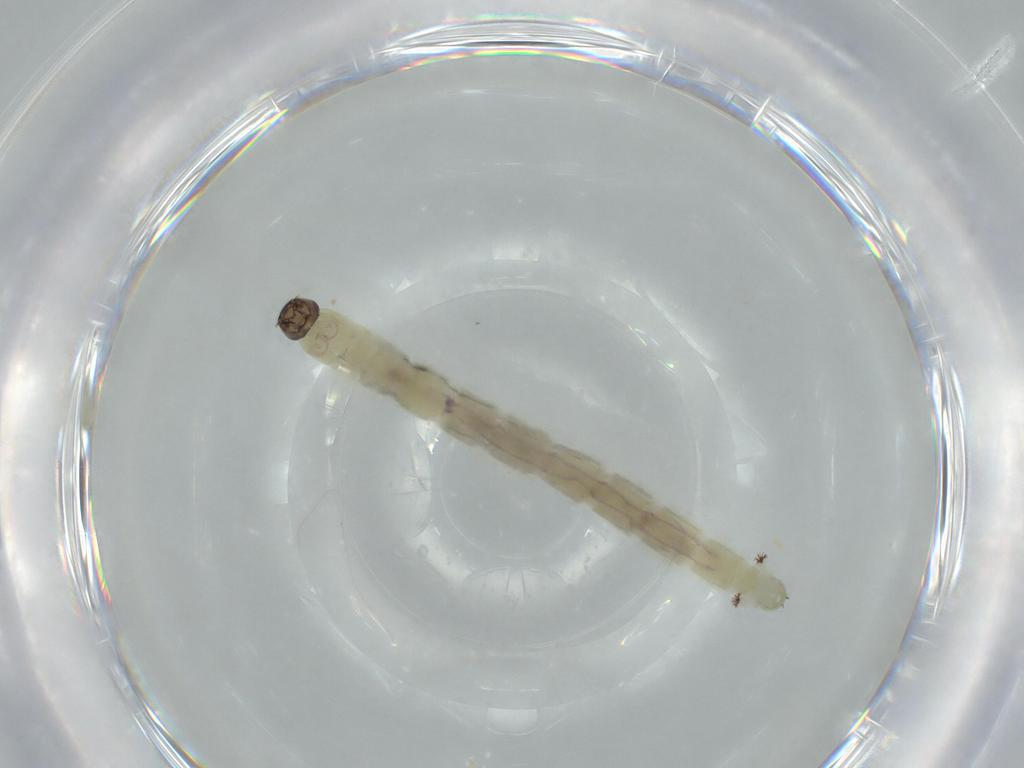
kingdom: Animalia
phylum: Arthropoda
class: Insecta
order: Diptera
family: Chironomidae
